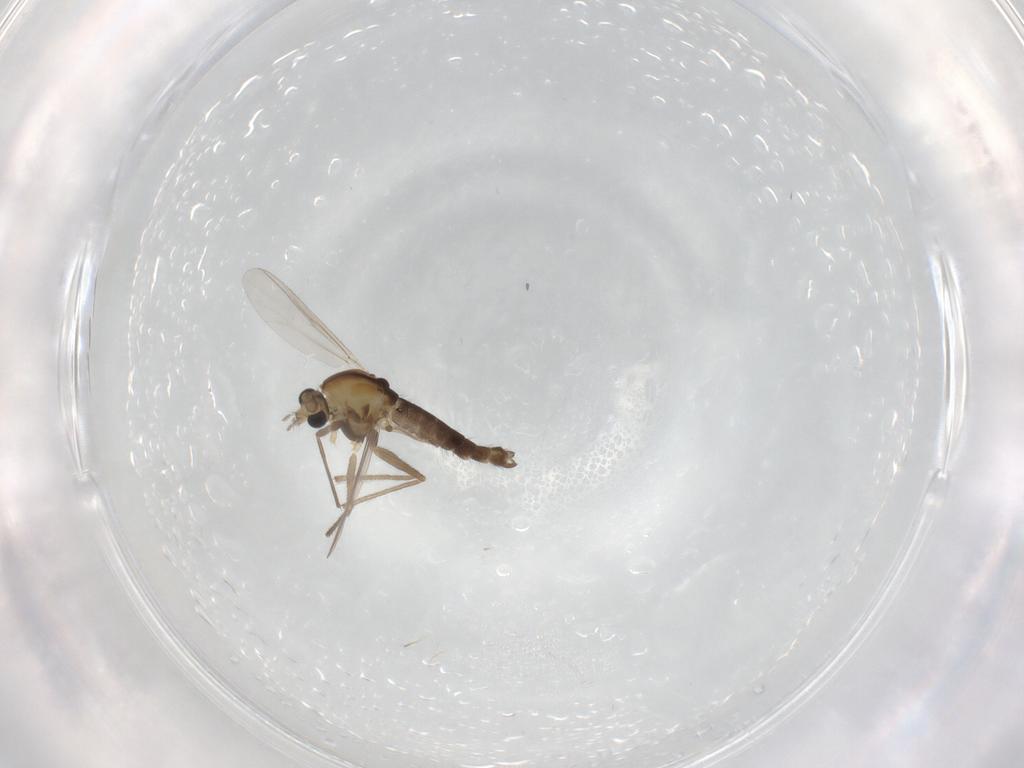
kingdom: Animalia
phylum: Arthropoda
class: Insecta
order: Diptera
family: Chironomidae
